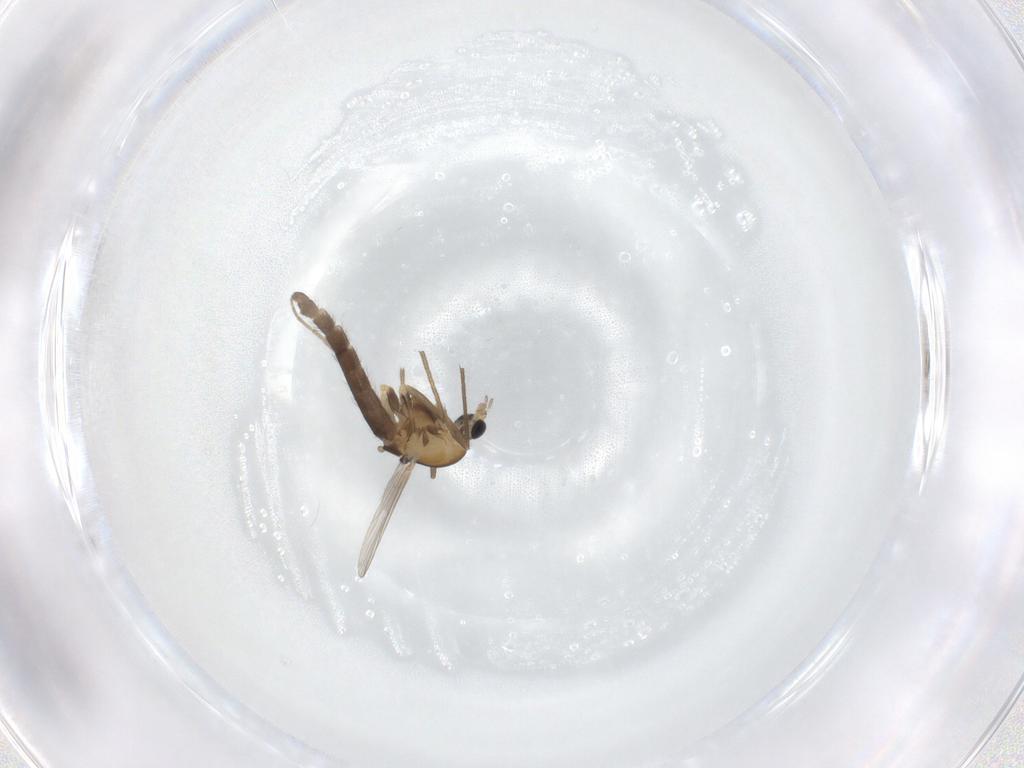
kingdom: Animalia
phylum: Arthropoda
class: Insecta
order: Diptera
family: Chironomidae
